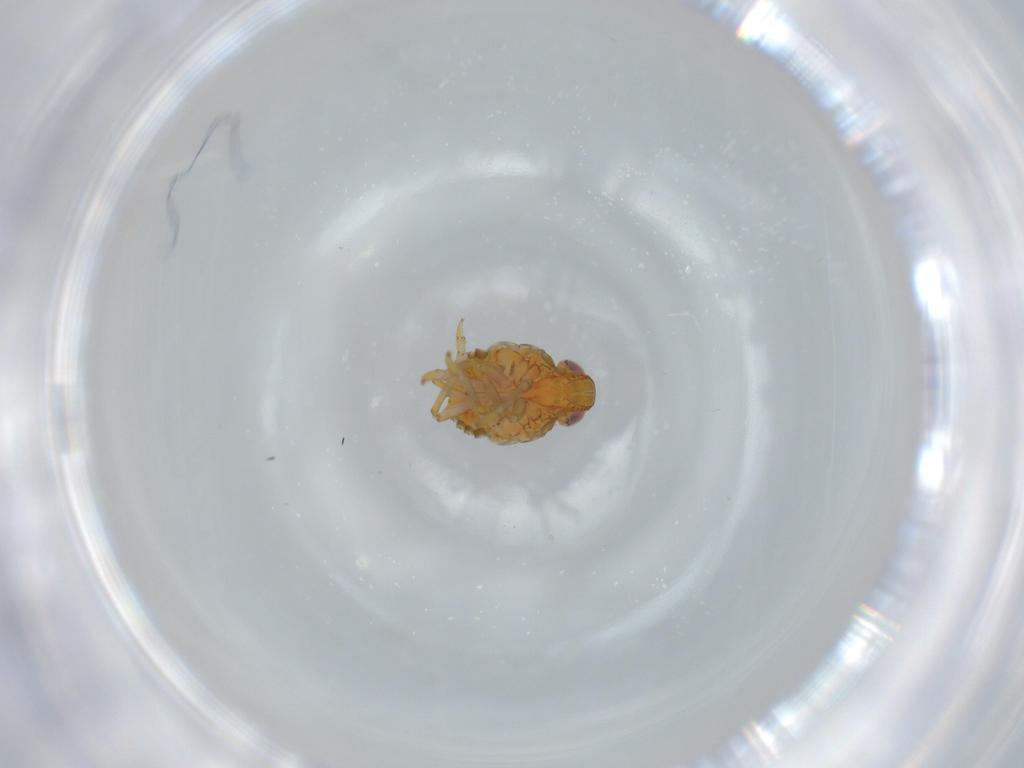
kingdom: Animalia
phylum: Arthropoda
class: Insecta
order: Hemiptera
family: Issidae
